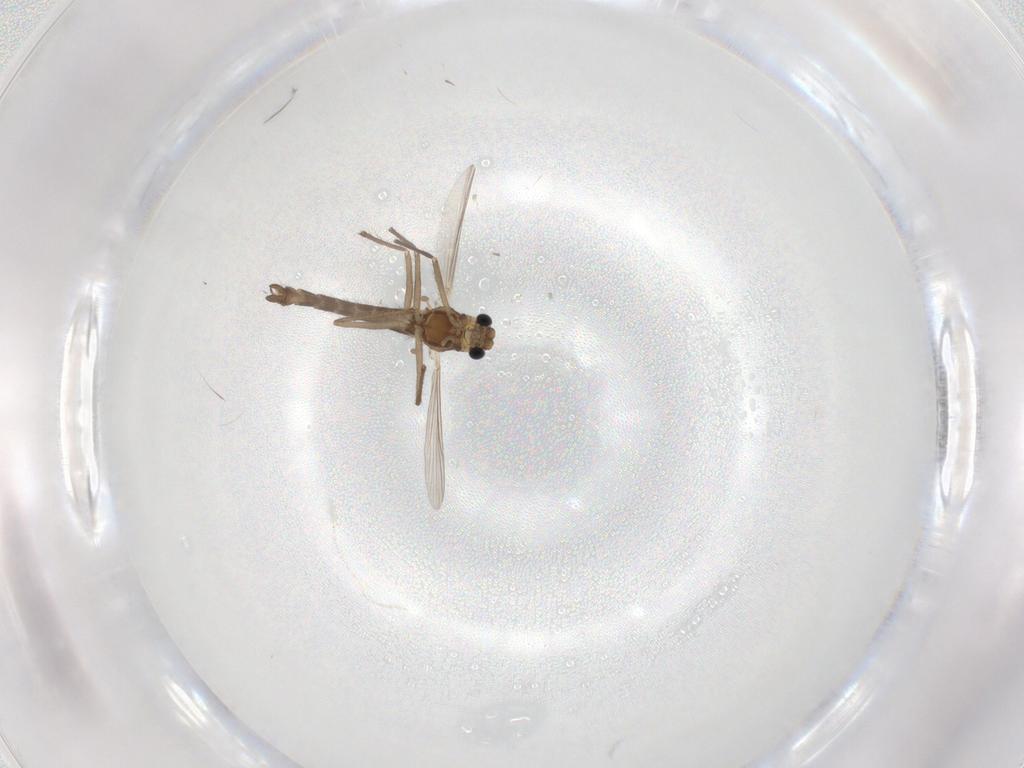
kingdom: Animalia
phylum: Arthropoda
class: Insecta
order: Diptera
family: Chironomidae
